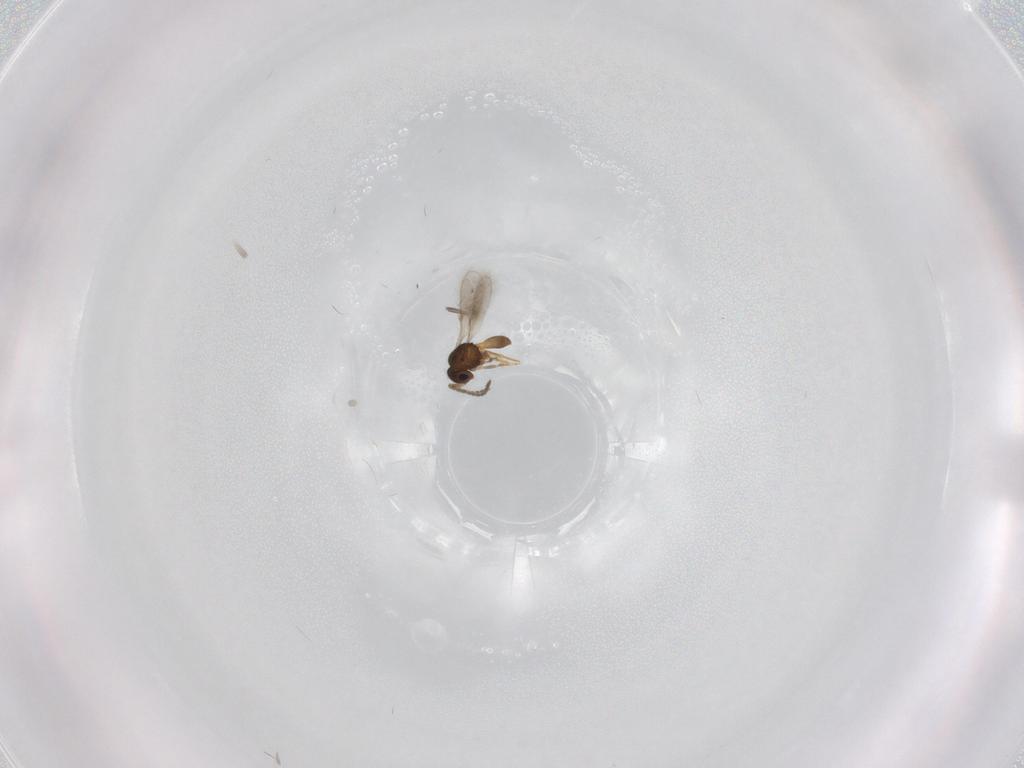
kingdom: Animalia
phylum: Arthropoda
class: Insecta
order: Hymenoptera
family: Scelionidae
